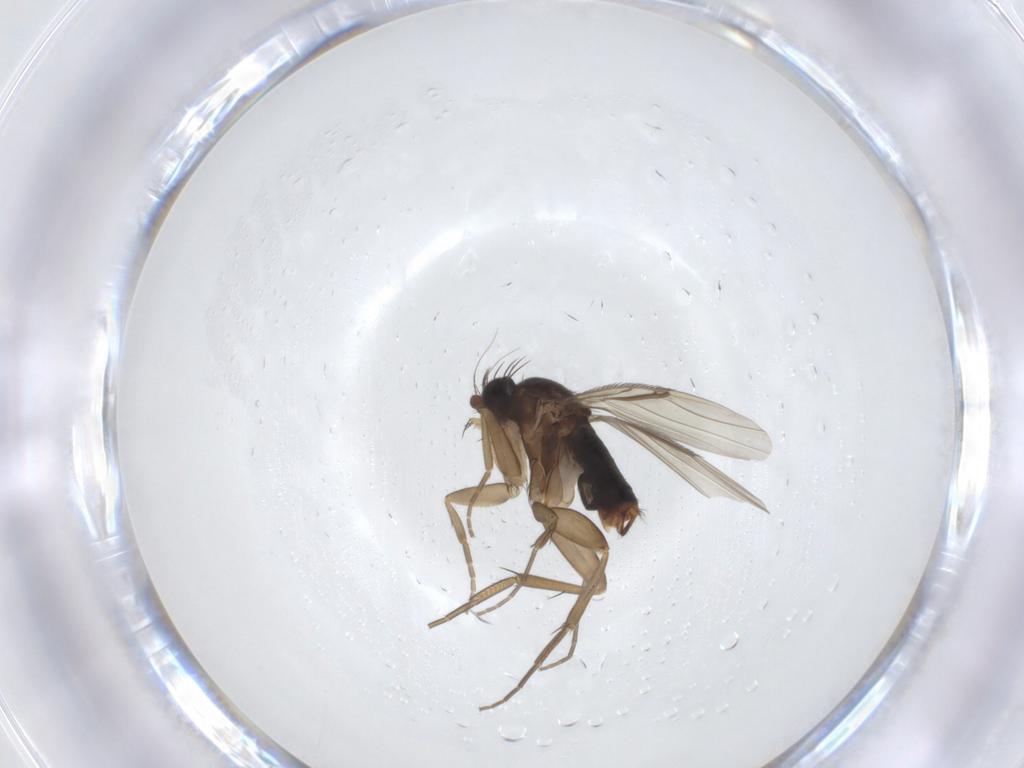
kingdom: Animalia
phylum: Arthropoda
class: Insecta
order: Diptera
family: Phoridae
